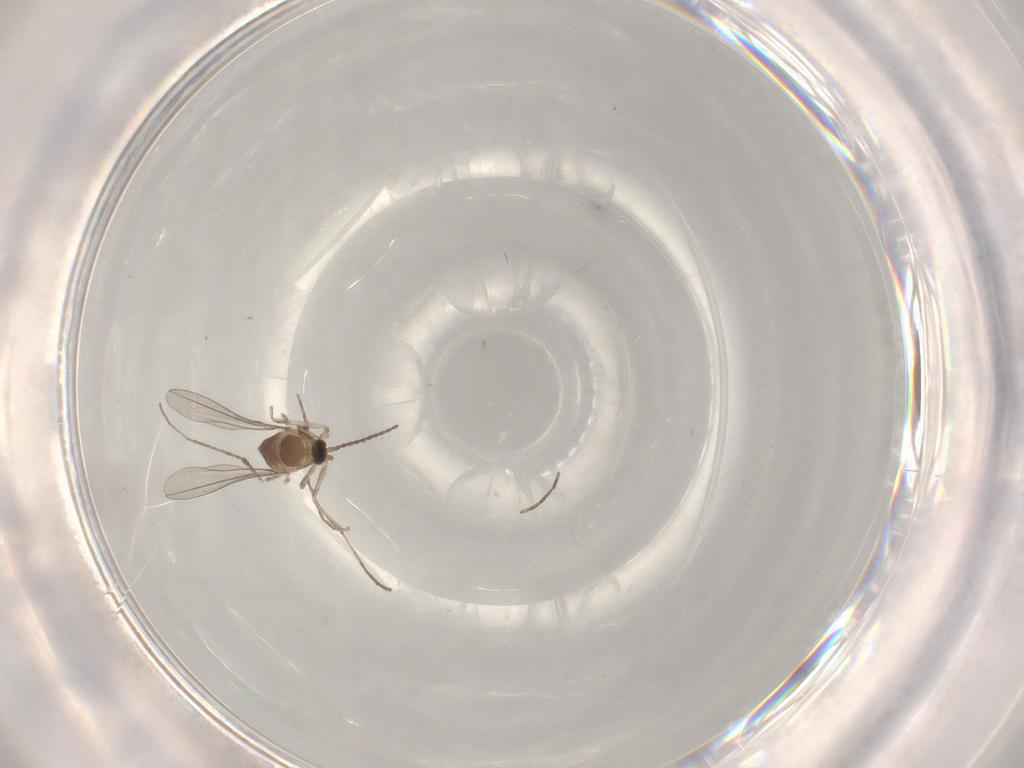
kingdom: Animalia
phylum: Arthropoda
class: Insecta
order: Diptera
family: Cecidomyiidae
